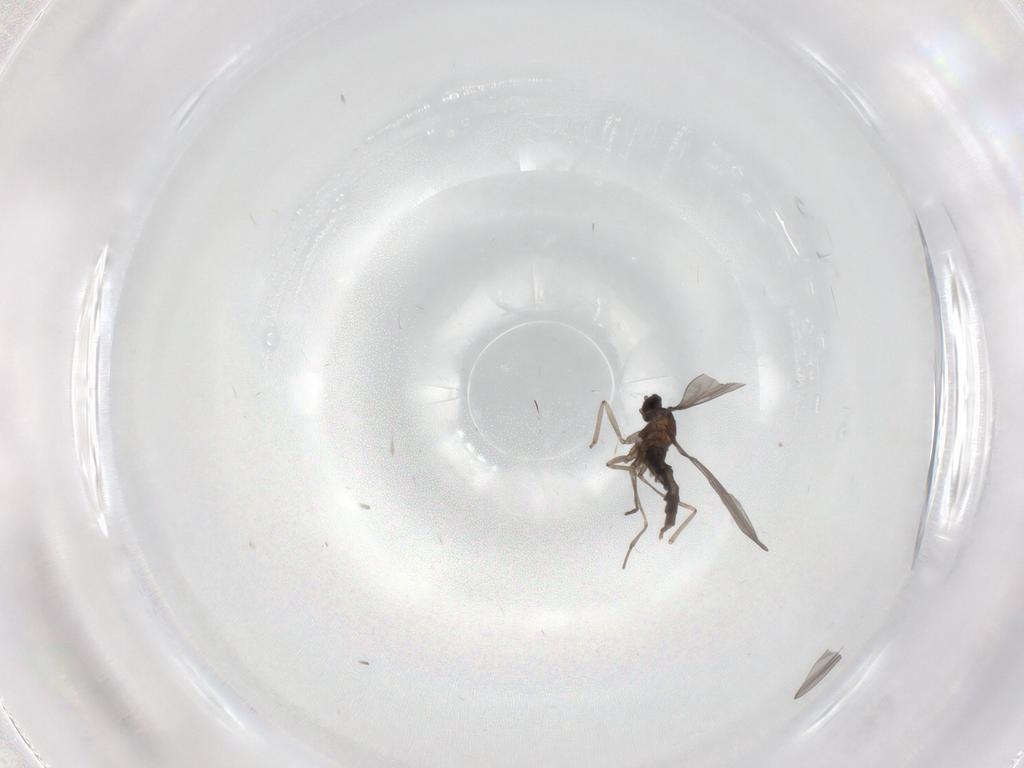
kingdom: Animalia
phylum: Arthropoda
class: Insecta
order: Diptera
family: Cecidomyiidae
